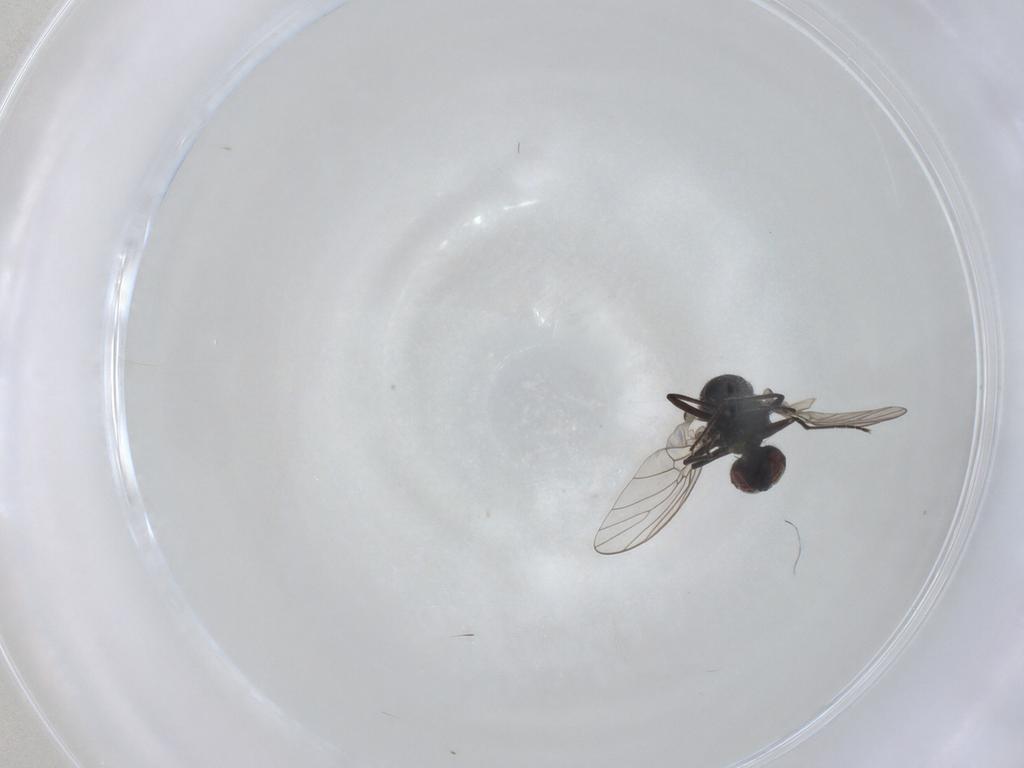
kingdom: Animalia
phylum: Arthropoda
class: Insecta
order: Diptera
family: Bombyliidae
